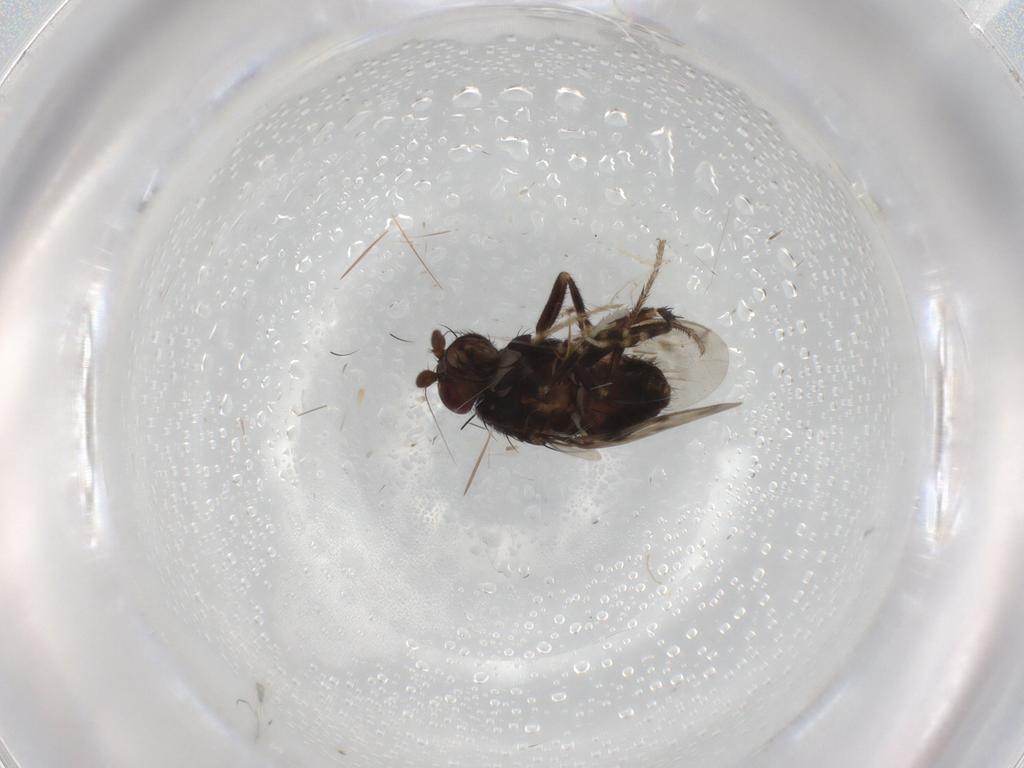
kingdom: Animalia
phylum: Arthropoda
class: Insecta
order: Diptera
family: Sphaeroceridae
